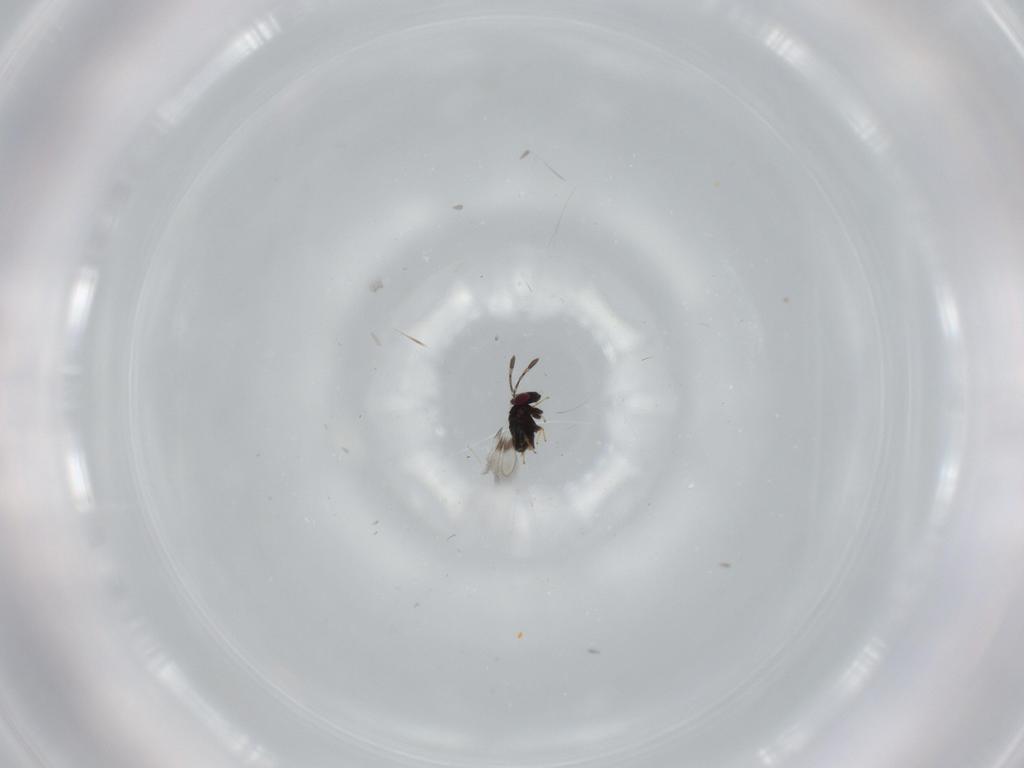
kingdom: Animalia
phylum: Arthropoda
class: Insecta
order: Hymenoptera
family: Azotidae
